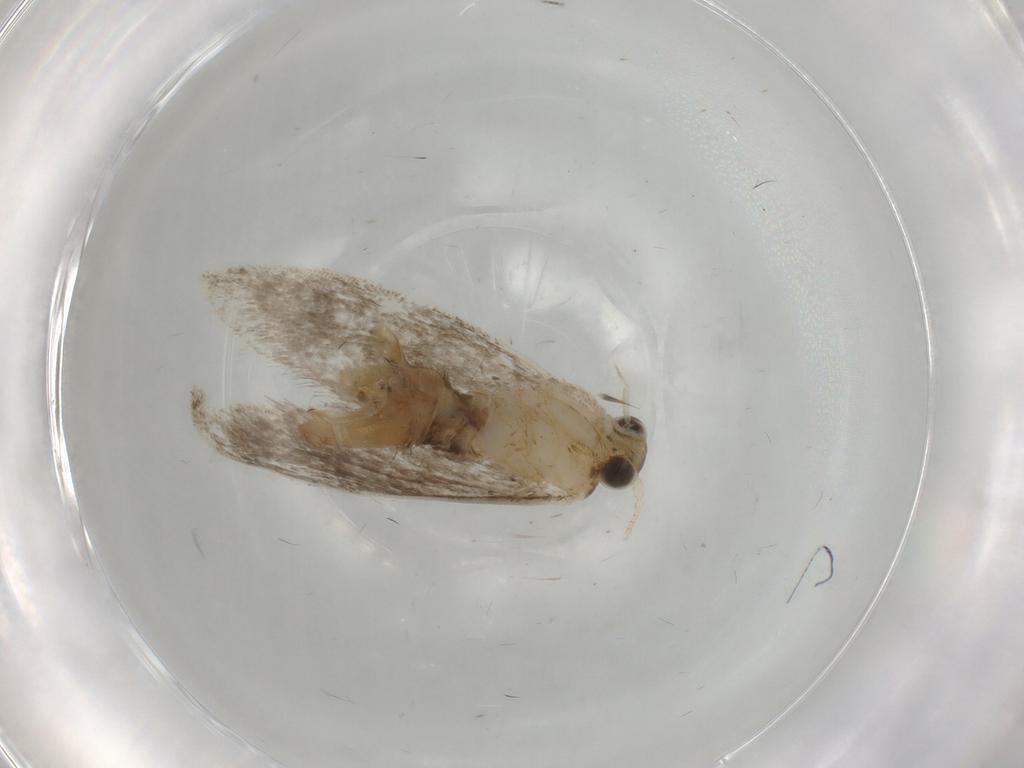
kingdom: Animalia
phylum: Arthropoda
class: Insecta
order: Lepidoptera
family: Tineidae
